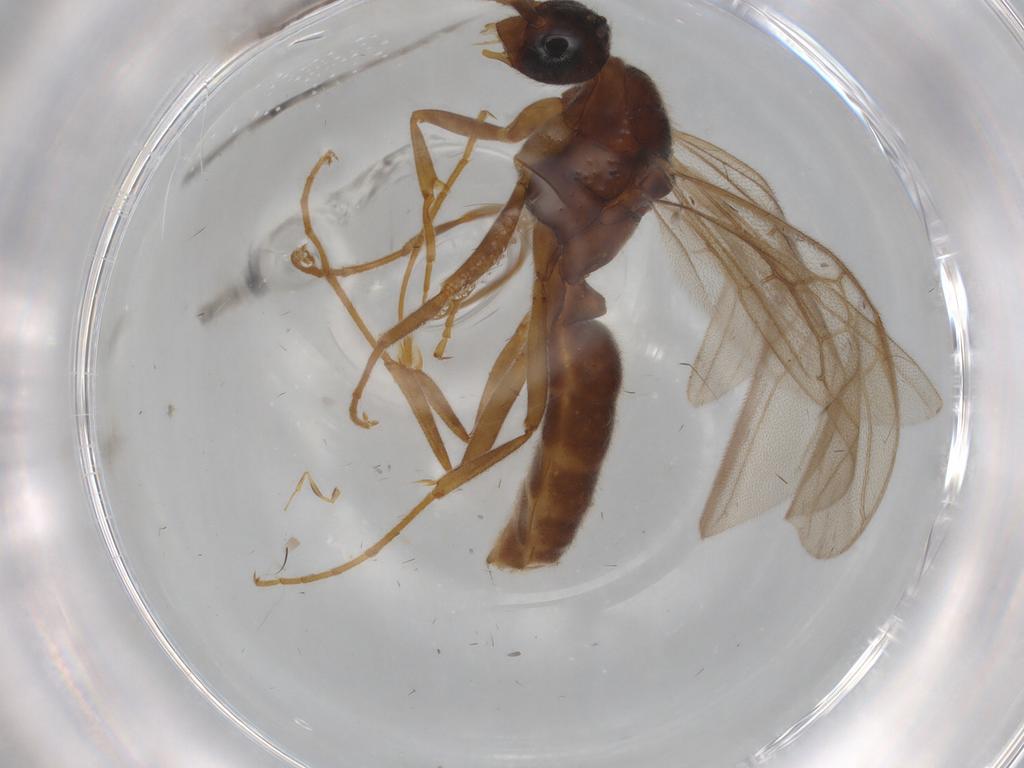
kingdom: Animalia
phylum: Arthropoda
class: Insecta
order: Hymenoptera
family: Formicidae
